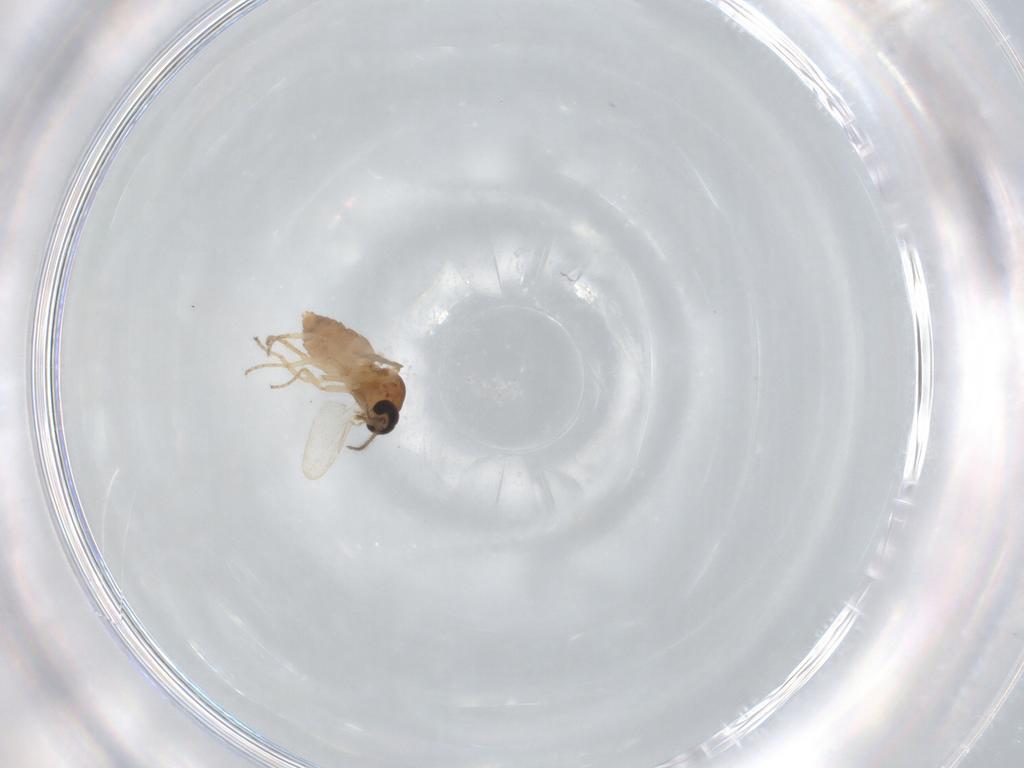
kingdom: Animalia
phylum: Arthropoda
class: Insecta
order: Diptera
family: Ceratopogonidae
